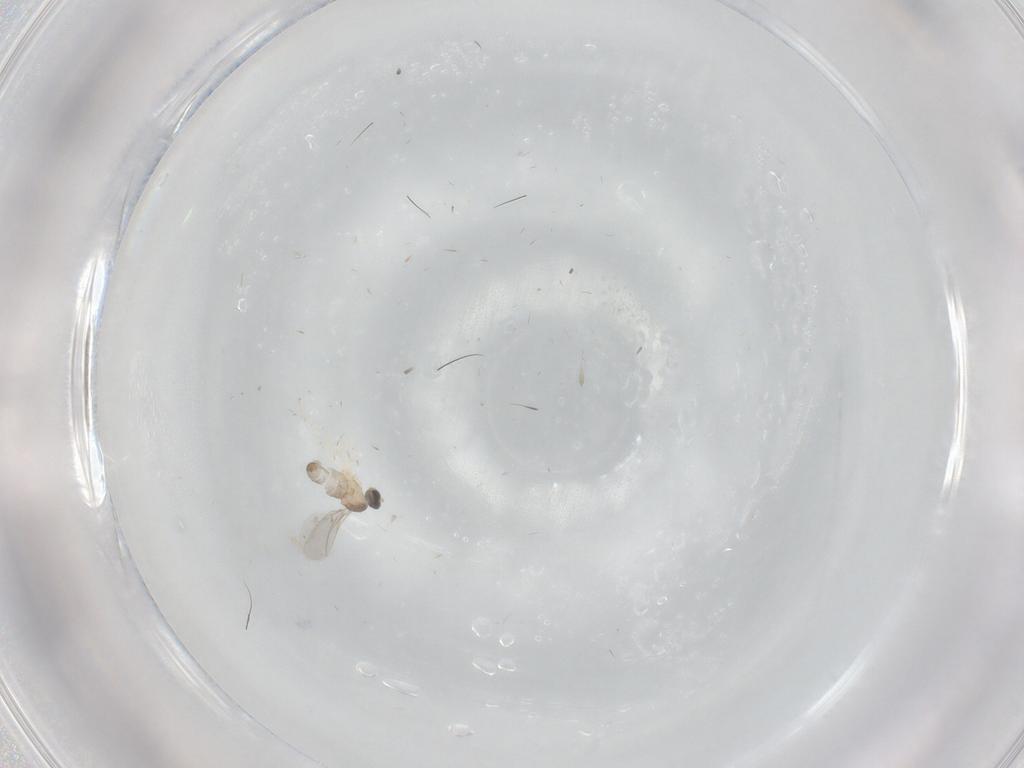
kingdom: Animalia
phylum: Arthropoda
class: Insecta
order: Diptera
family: Cecidomyiidae
